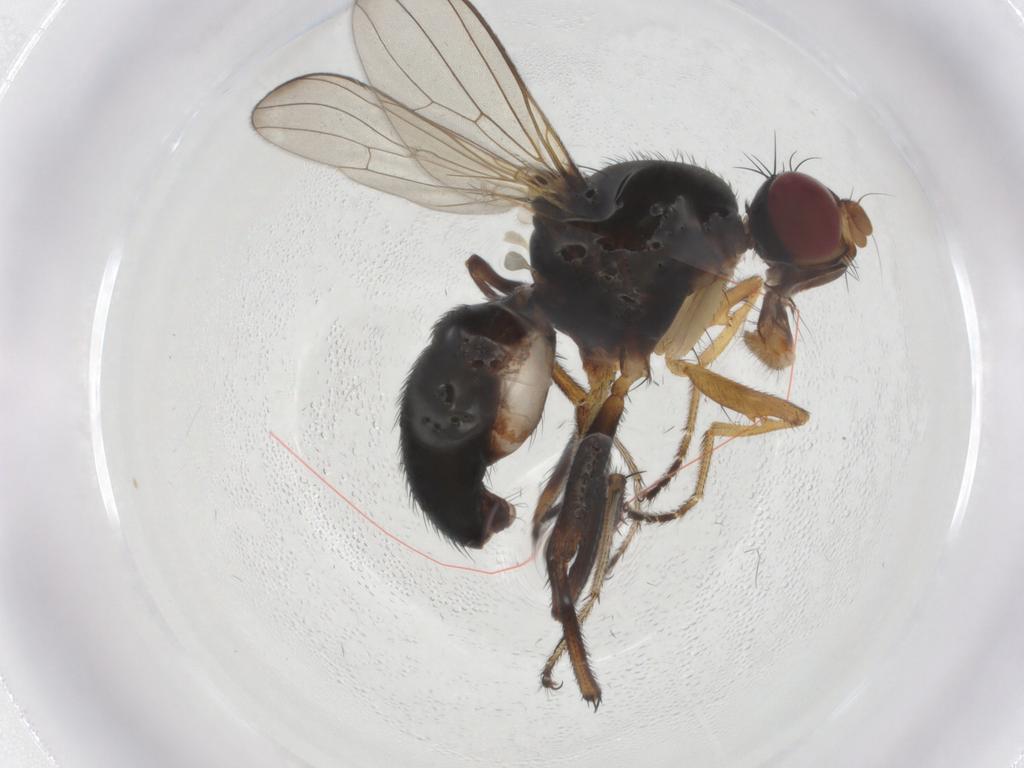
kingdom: Animalia
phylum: Arthropoda
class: Insecta
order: Diptera
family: Sepsidae
